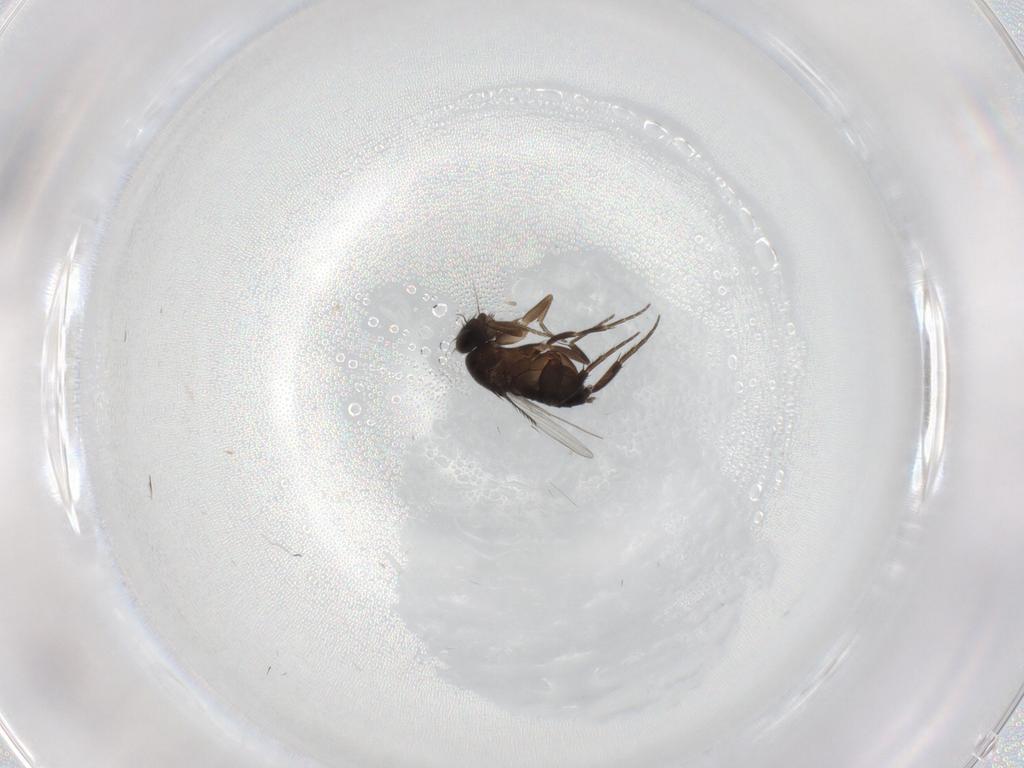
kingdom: Animalia
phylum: Arthropoda
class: Insecta
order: Diptera
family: Phoridae
